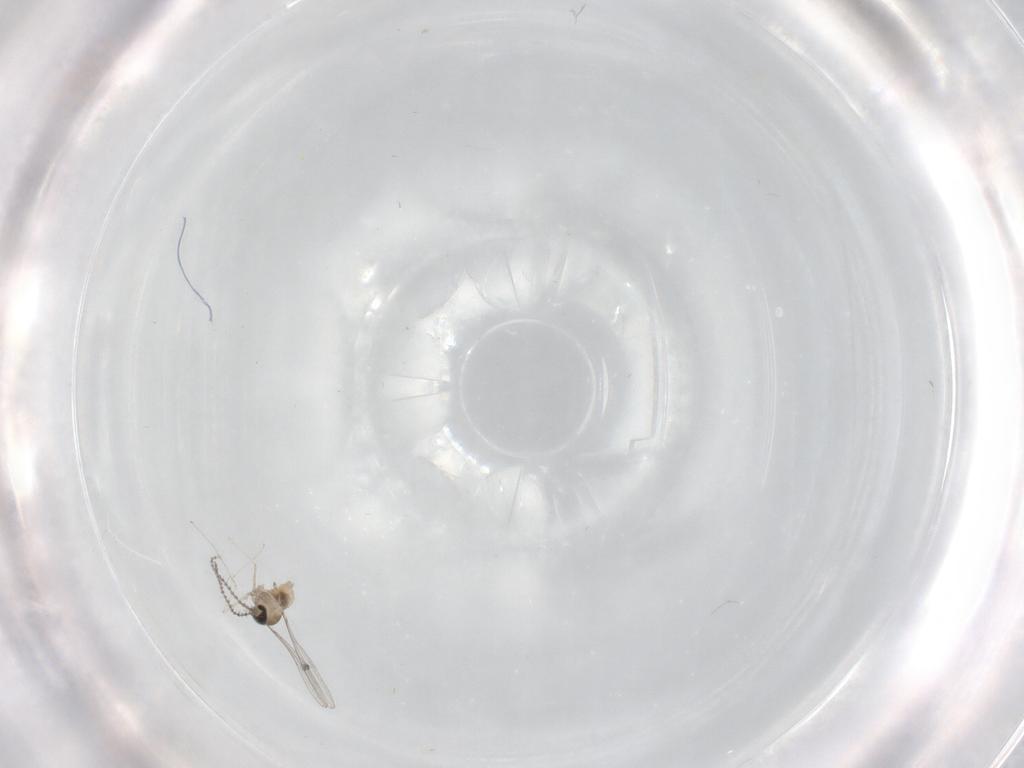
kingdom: Animalia
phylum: Arthropoda
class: Insecta
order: Diptera
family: Cecidomyiidae
